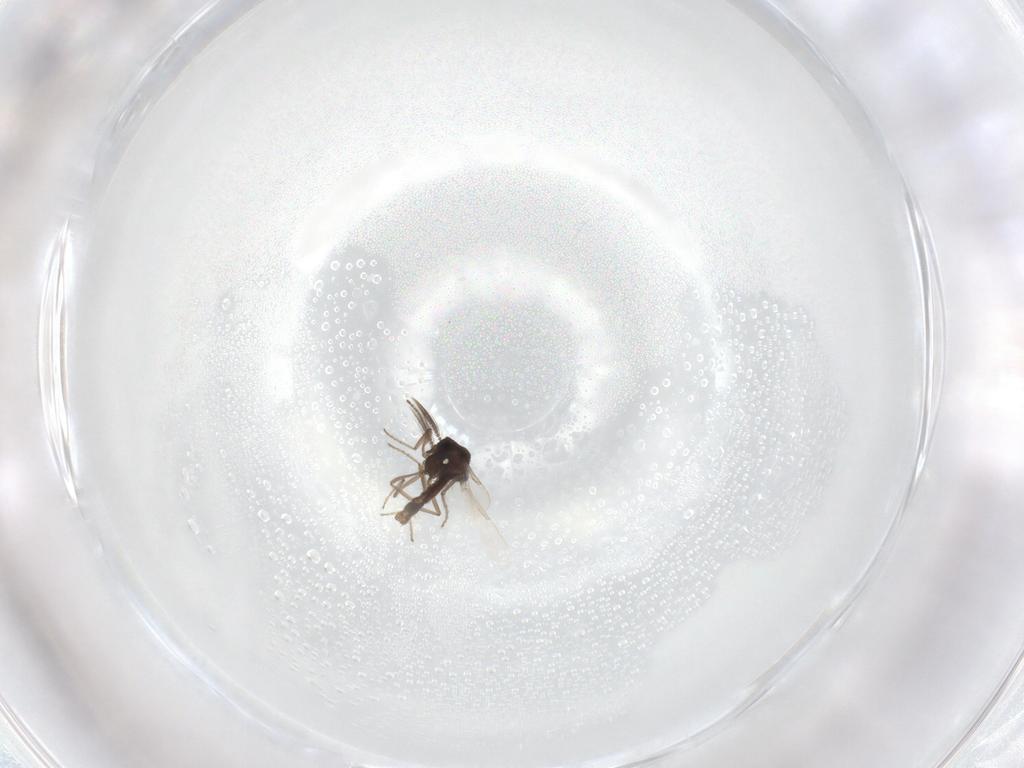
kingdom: Animalia
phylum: Arthropoda
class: Insecta
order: Diptera
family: Ceratopogonidae
